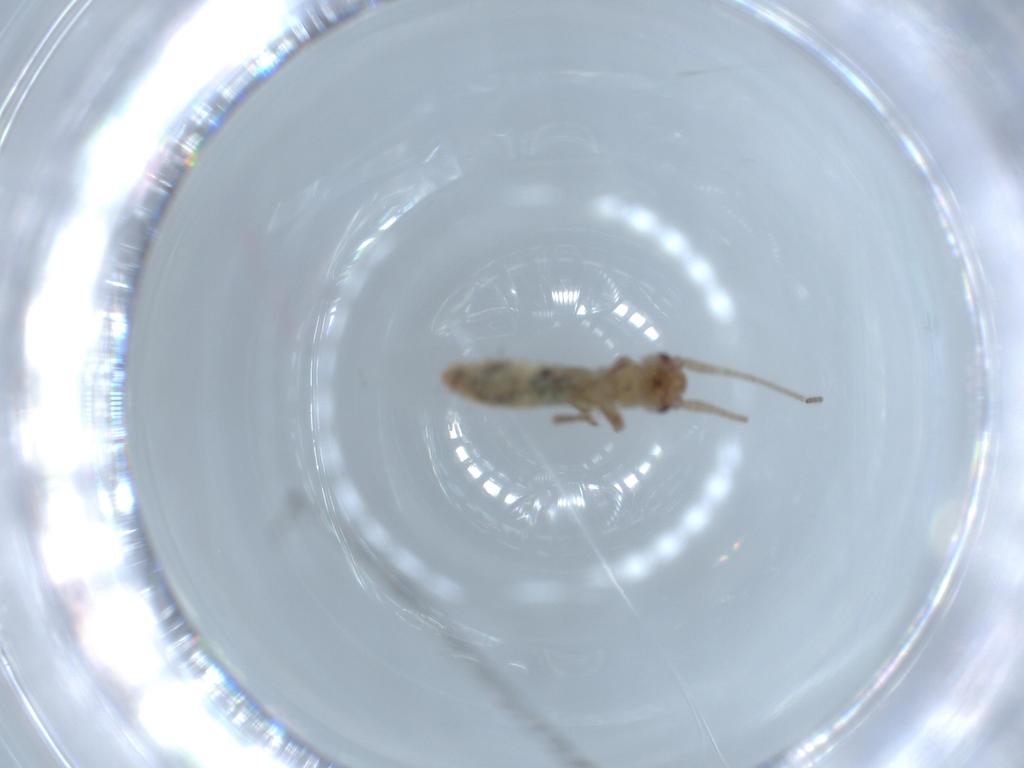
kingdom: Animalia
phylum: Arthropoda
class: Insecta
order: Orthoptera
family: Mogoplistidae
